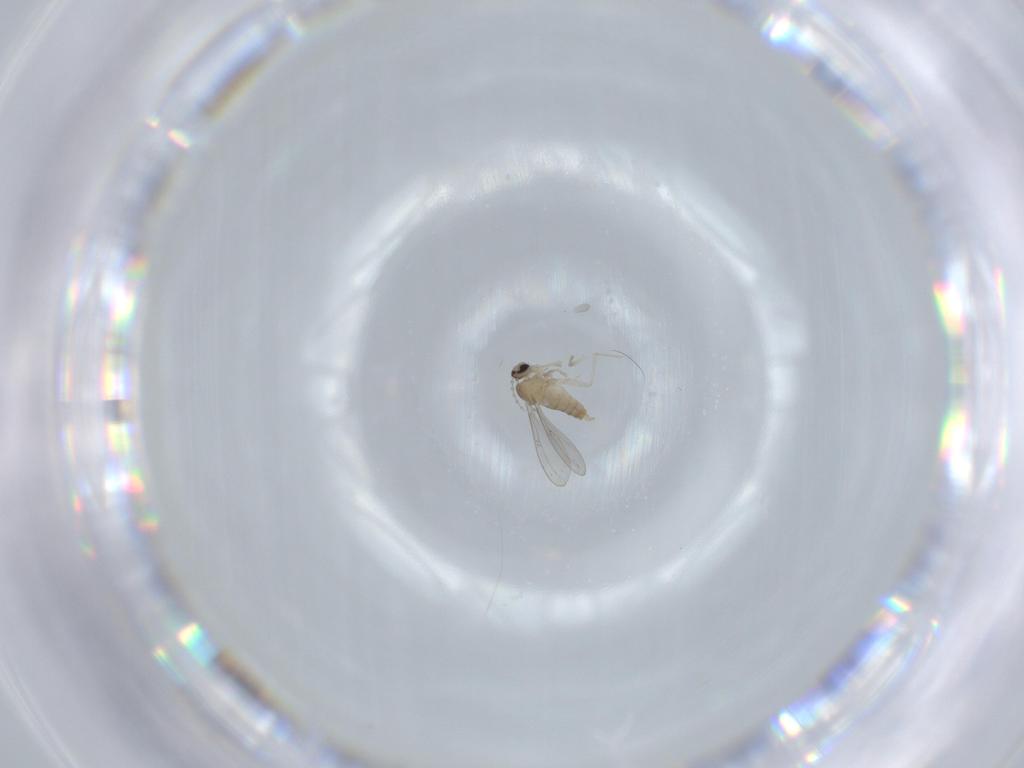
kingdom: Animalia
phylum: Arthropoda
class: Insecta
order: Diptera
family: Cecidomyiidae
